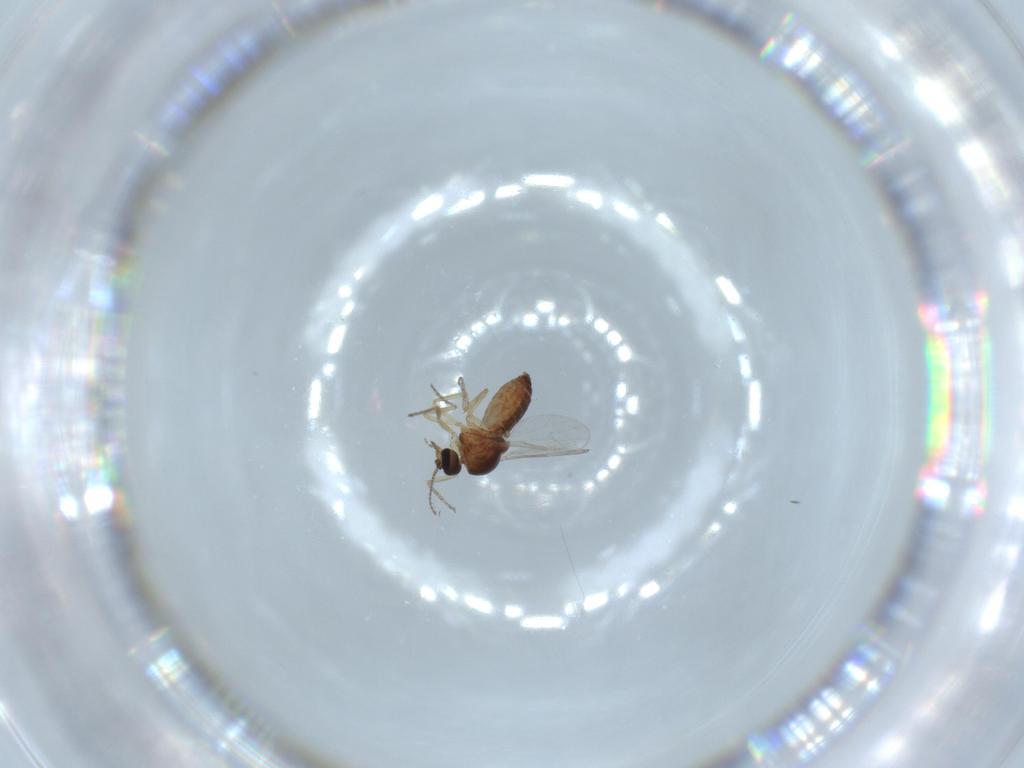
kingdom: Animalia
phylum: Arthropoda
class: Insecta
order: Diptera
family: Ceratopogonidae
